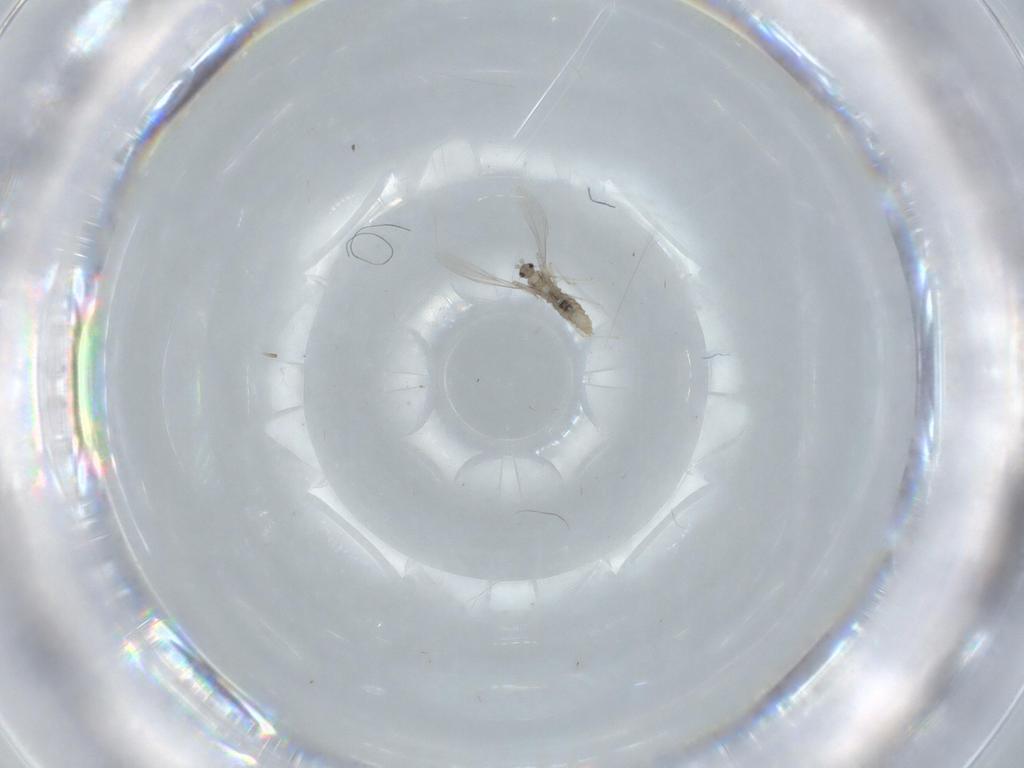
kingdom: Animalia
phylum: Arthropoda
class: Insecta
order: Diptera
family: Cecidomyiidae
